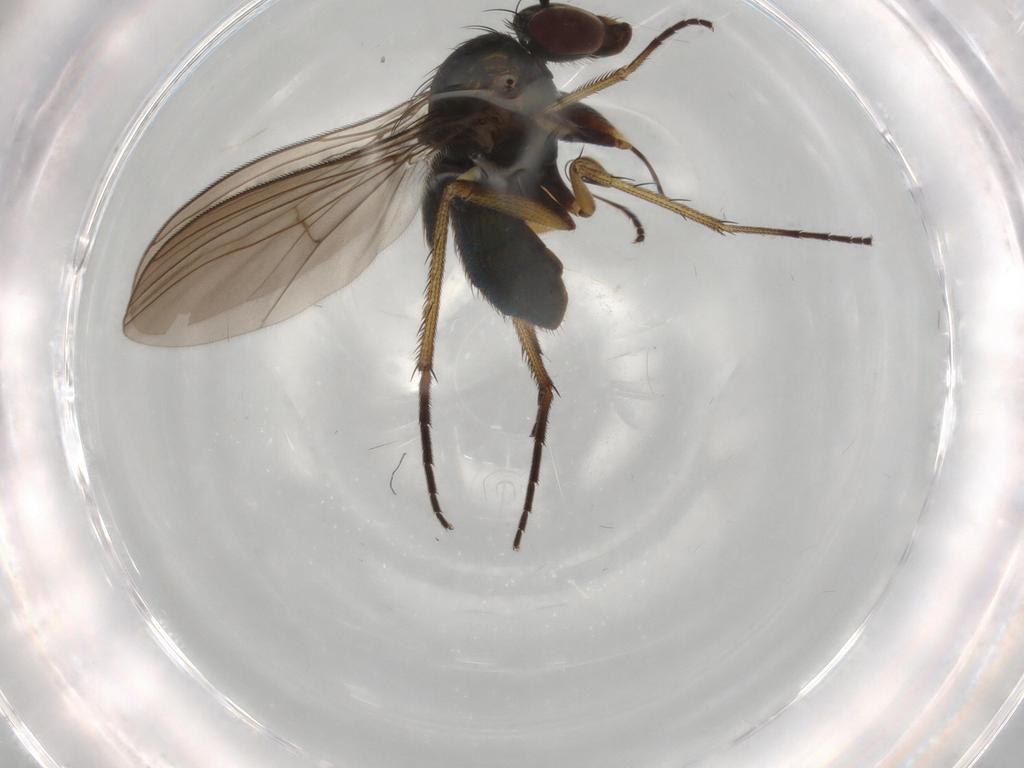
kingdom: Animalia
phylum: Arthropoda
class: Insecta
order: Diptera
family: Dolichopodidae
